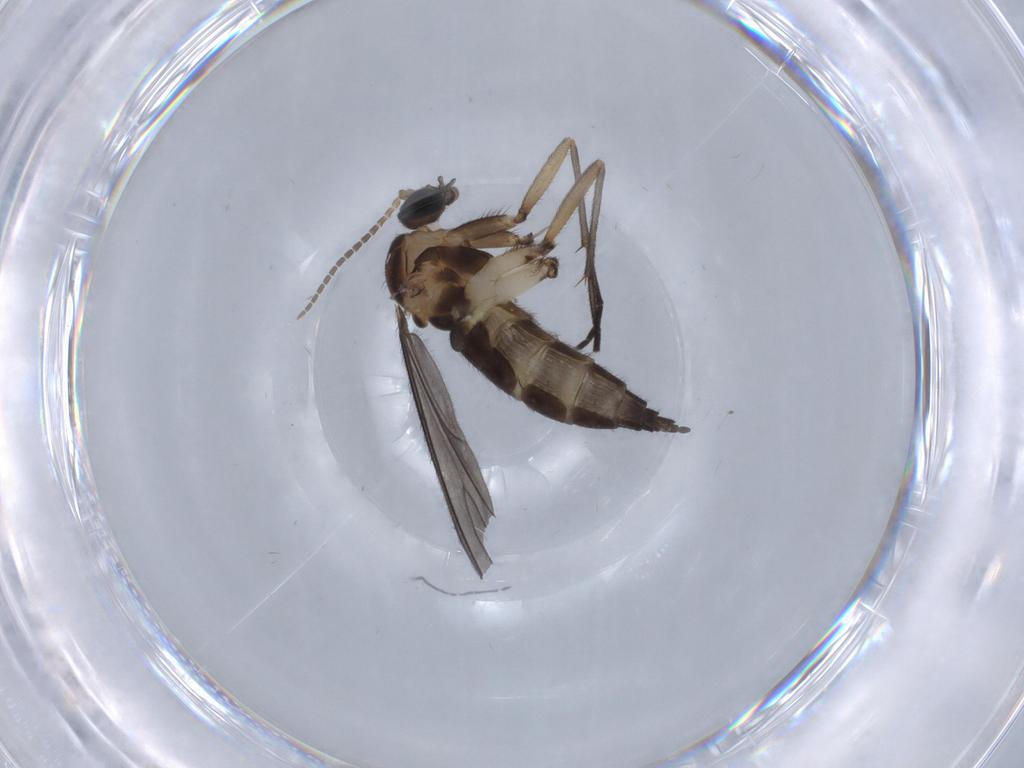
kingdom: Animalia
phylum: Arthropoda
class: Insecta
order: Diptera
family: Sciaridae
